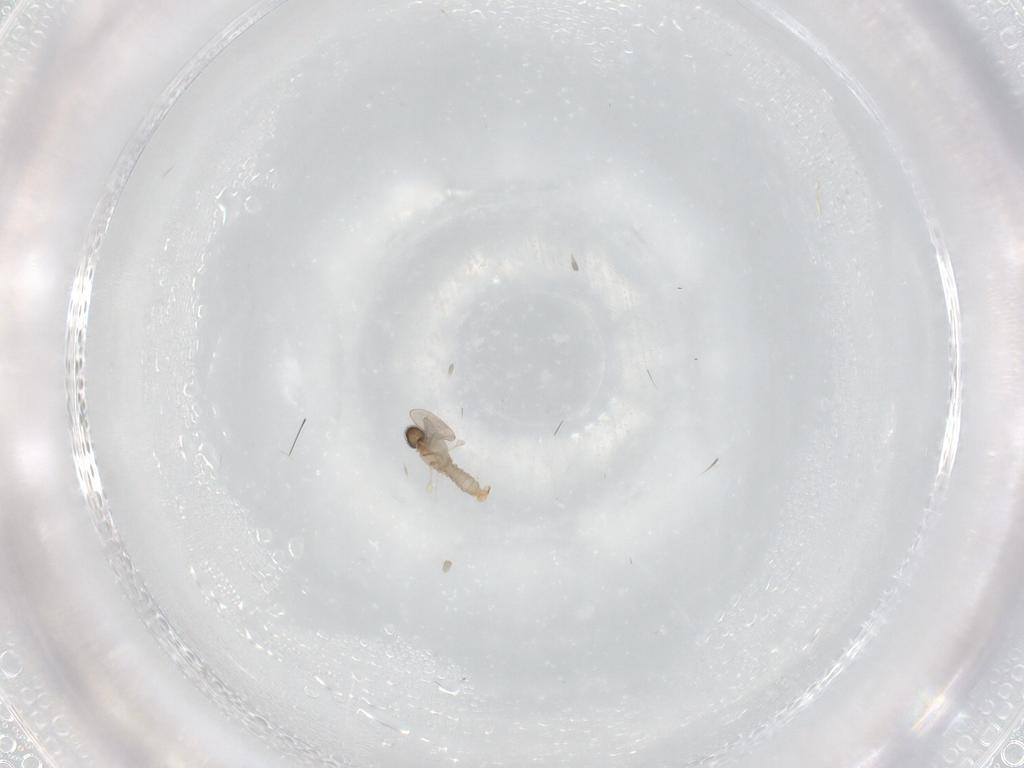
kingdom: Animalia
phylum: Arthropoda
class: Insecta
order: Diptera
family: Cecidomyiidae
